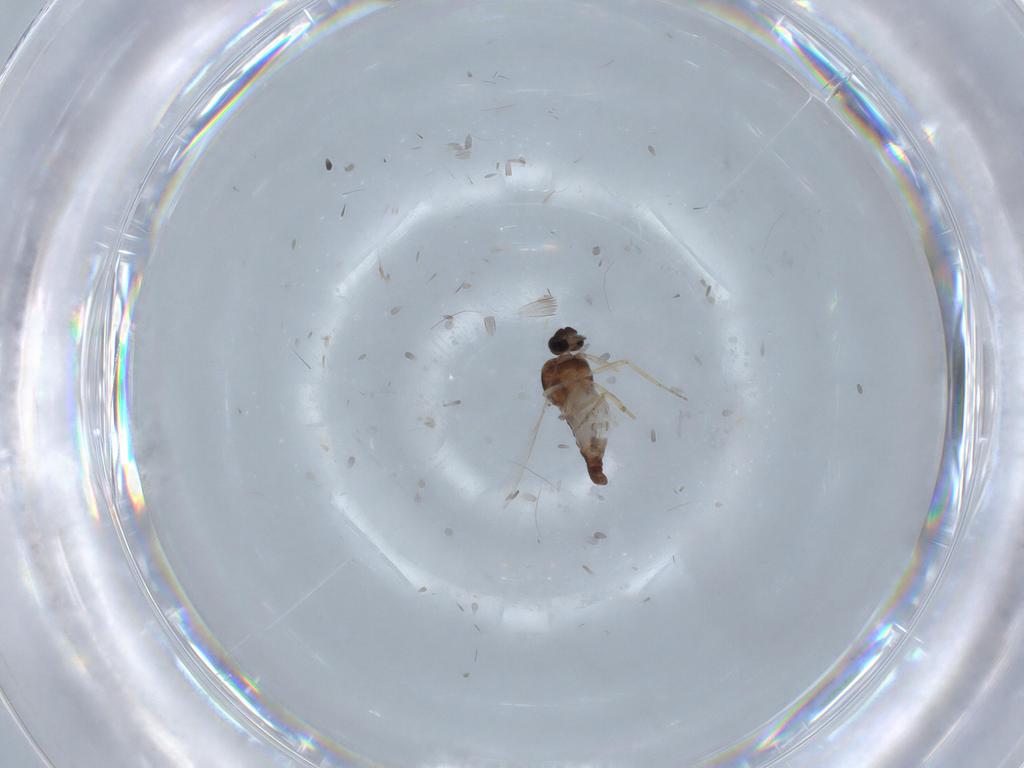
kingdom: Animalia
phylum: Arthropoda
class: Insecta
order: Diptera
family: Ceratopogonidae
